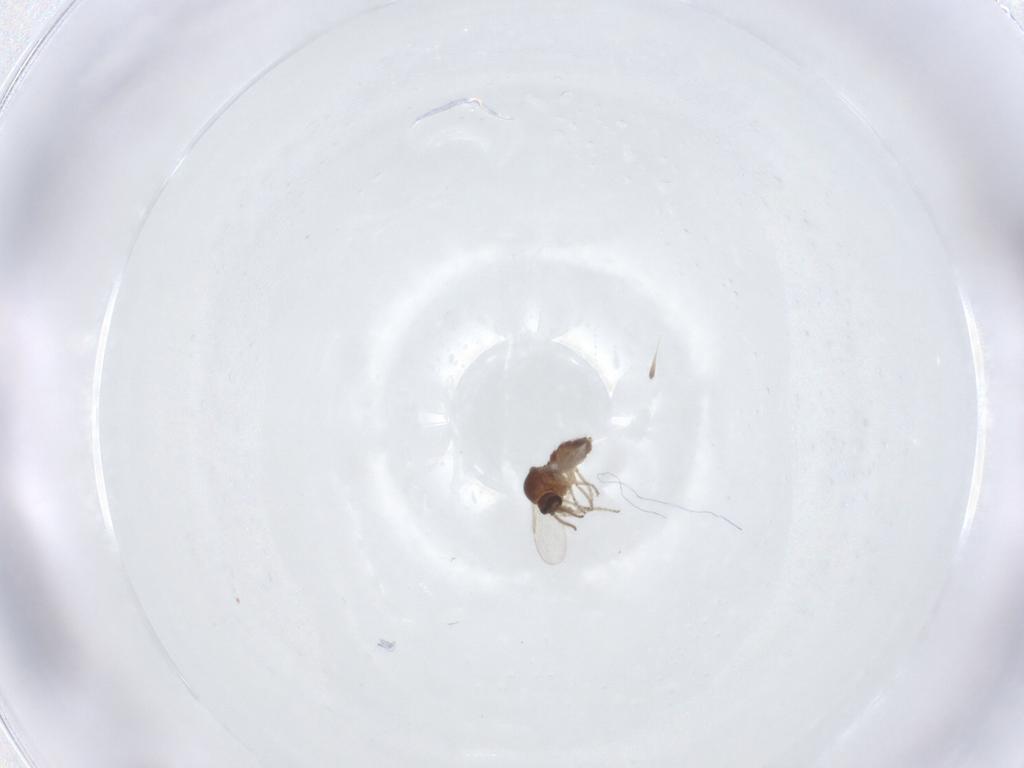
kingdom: Animalia
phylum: Arthropoda
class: Insecta
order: Diptera
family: Ceratopogonidae
